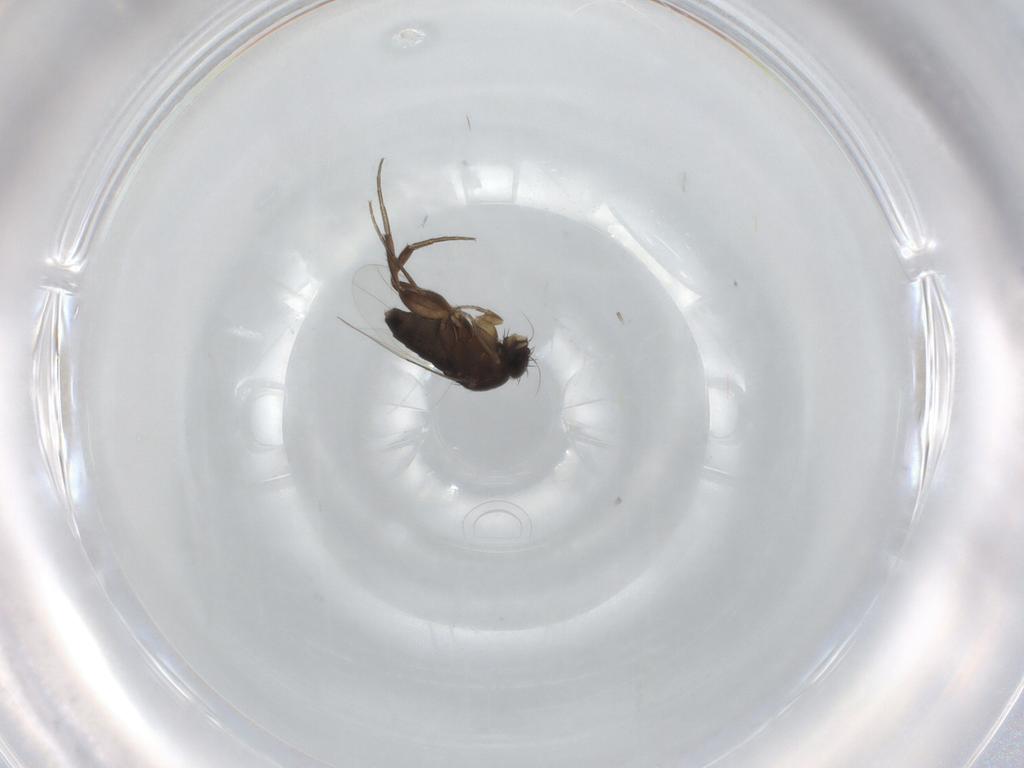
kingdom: Animalia
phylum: Arthropoda
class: Insecta
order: Diptera
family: Phoridae
